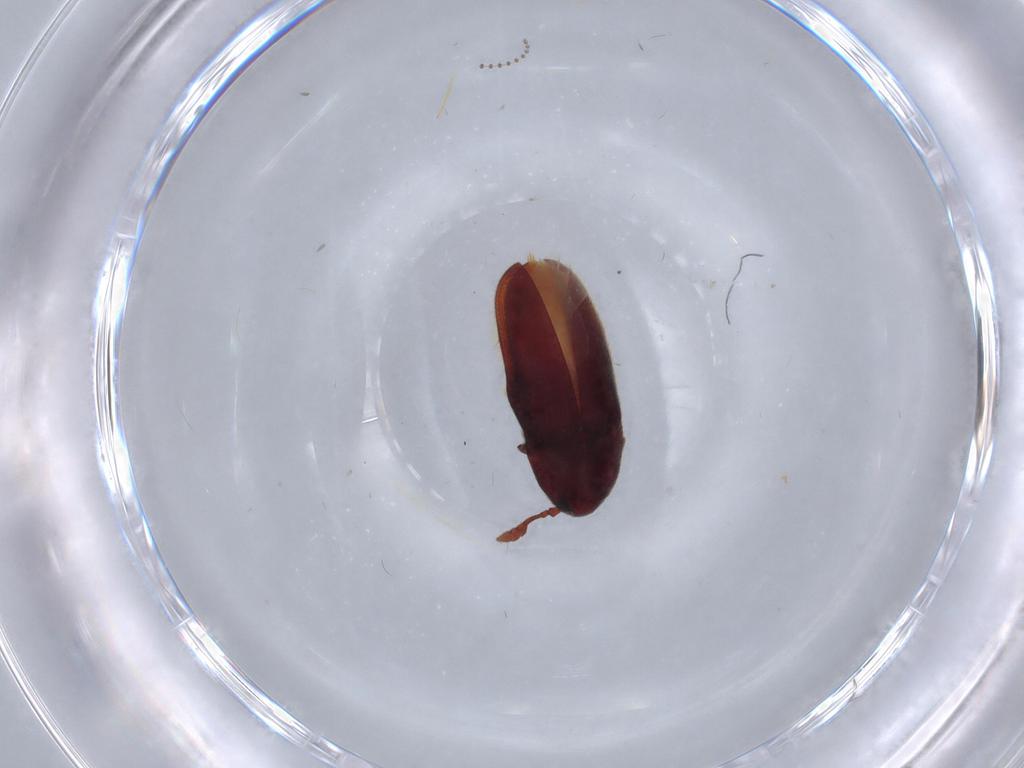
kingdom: Animalia
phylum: Arthropoda
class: Insecta
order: Coleoptera
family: Throscidae
